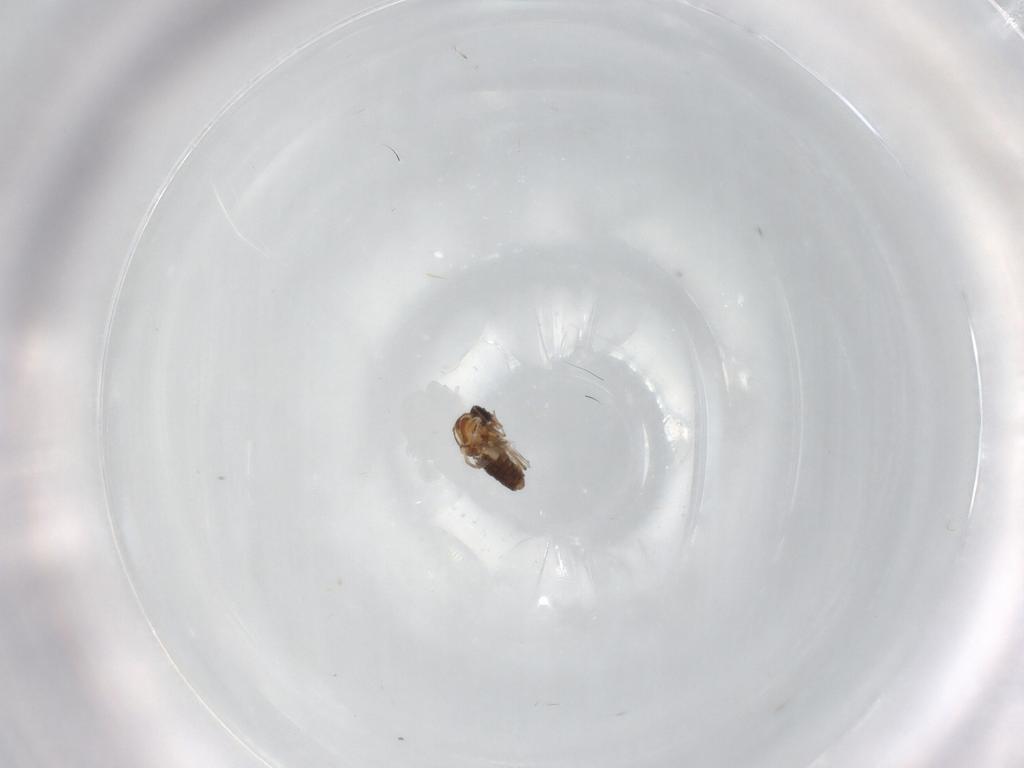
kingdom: Animalia
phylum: Arthropoda
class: Insecta
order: Diptera
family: Ceratopogonidae
